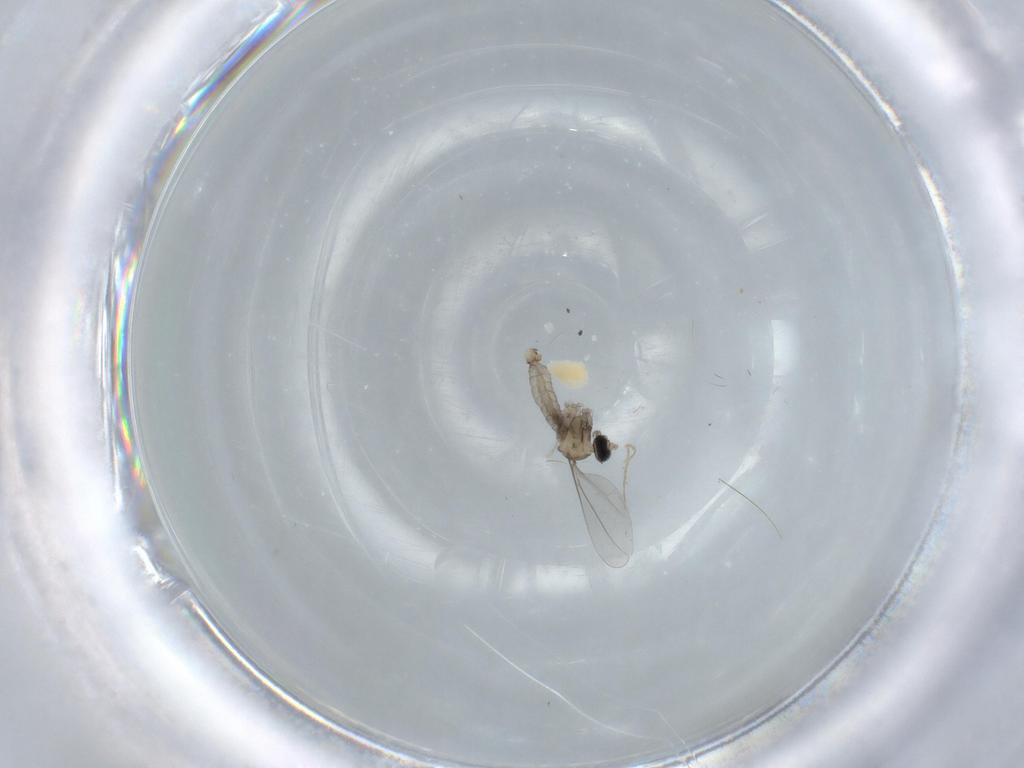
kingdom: Animalia
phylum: Arthropoda
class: Insecta
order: Diptera
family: Cecidomyiidae
